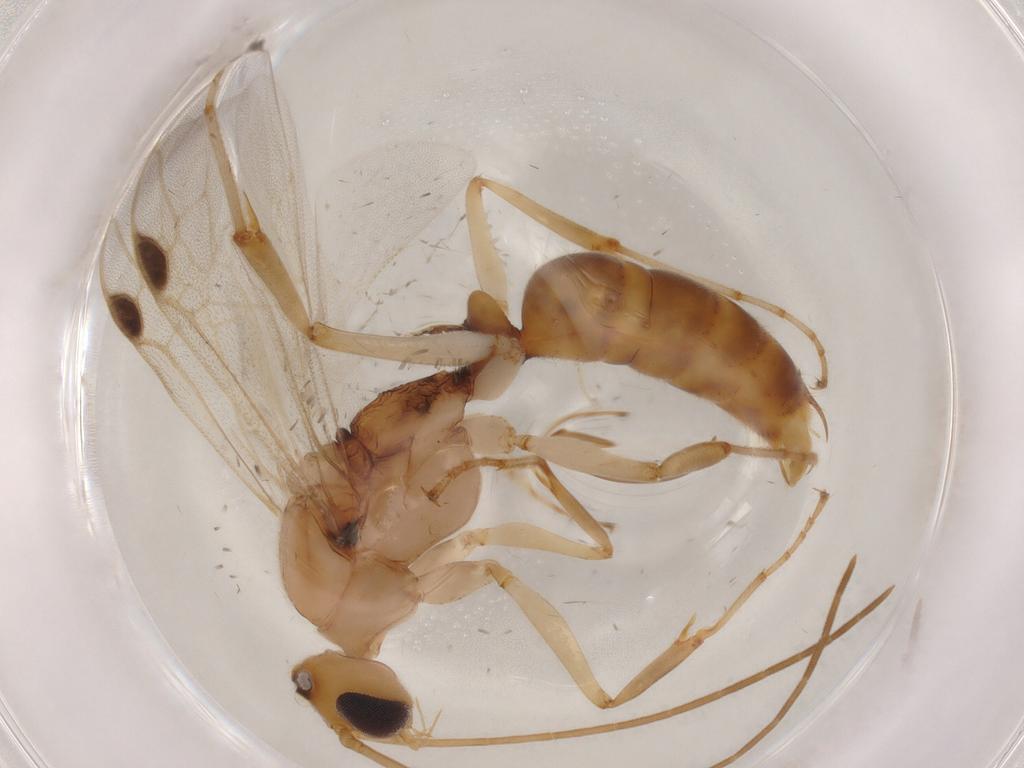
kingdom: Animalia
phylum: Arthropoda
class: Insecta
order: Hymenoptera
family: Formicidae
